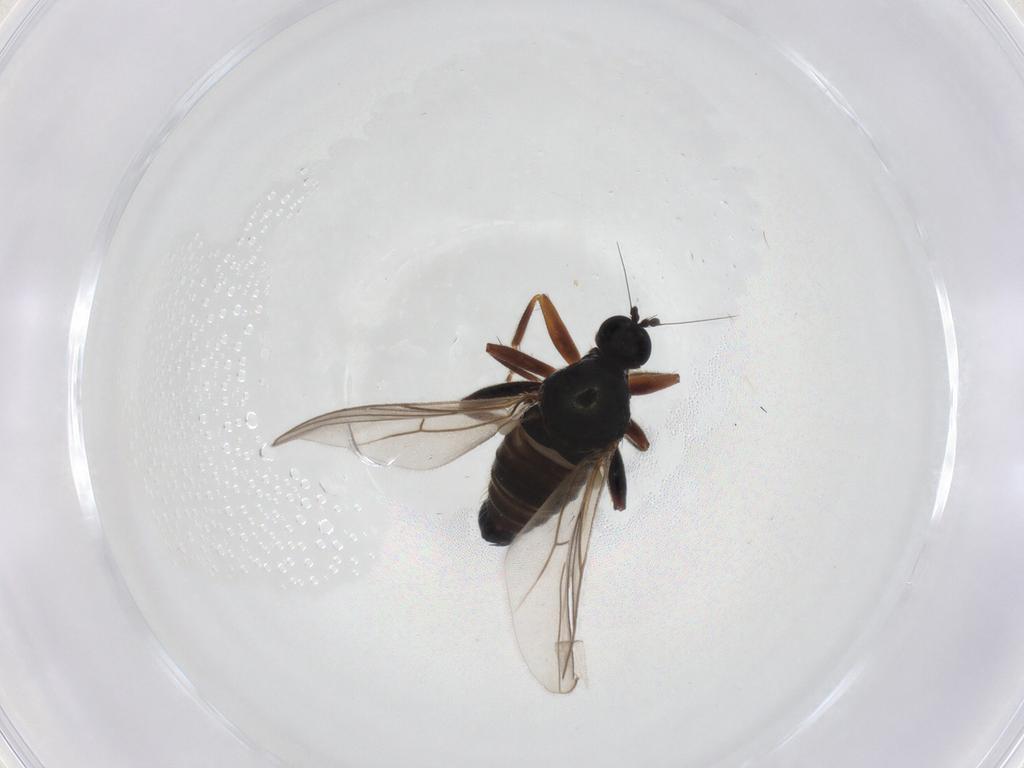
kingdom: Animalia
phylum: Arthropoda
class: Insecta
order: Diptera
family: Hybotidae
